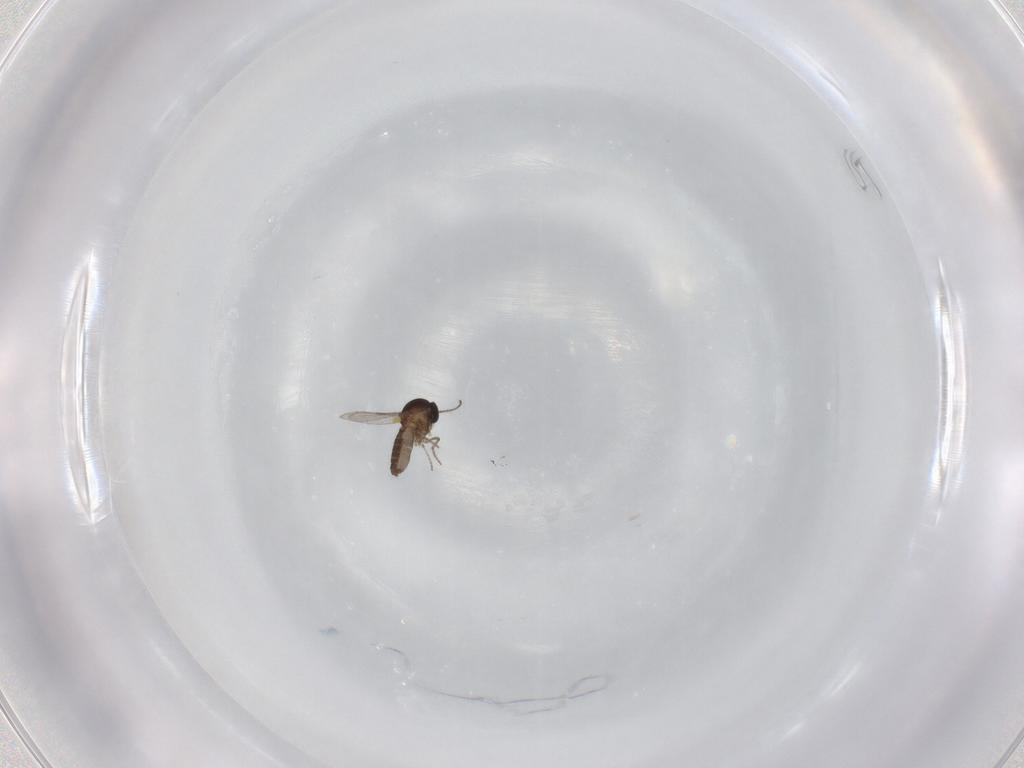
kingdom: Animalia
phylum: Arthropoda
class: Insecta
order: Diptera
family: Ceratopogonidae
